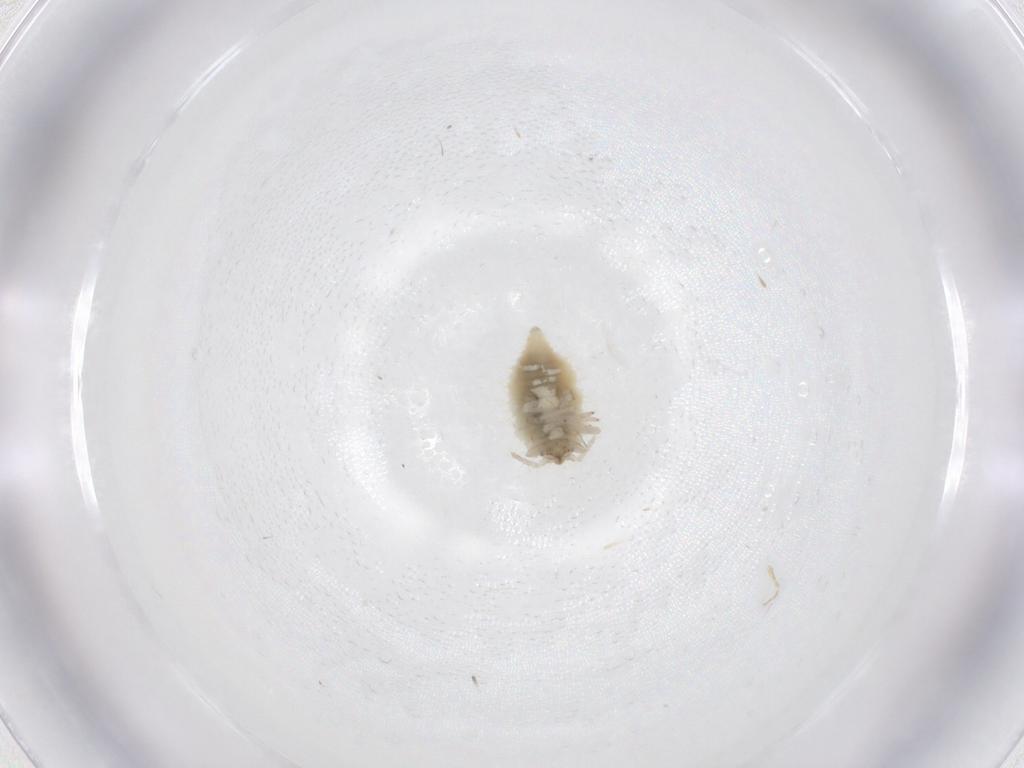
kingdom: Animalia
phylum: Arthropoda
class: Insecta
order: Neuroptera
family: Coniopterygidae
